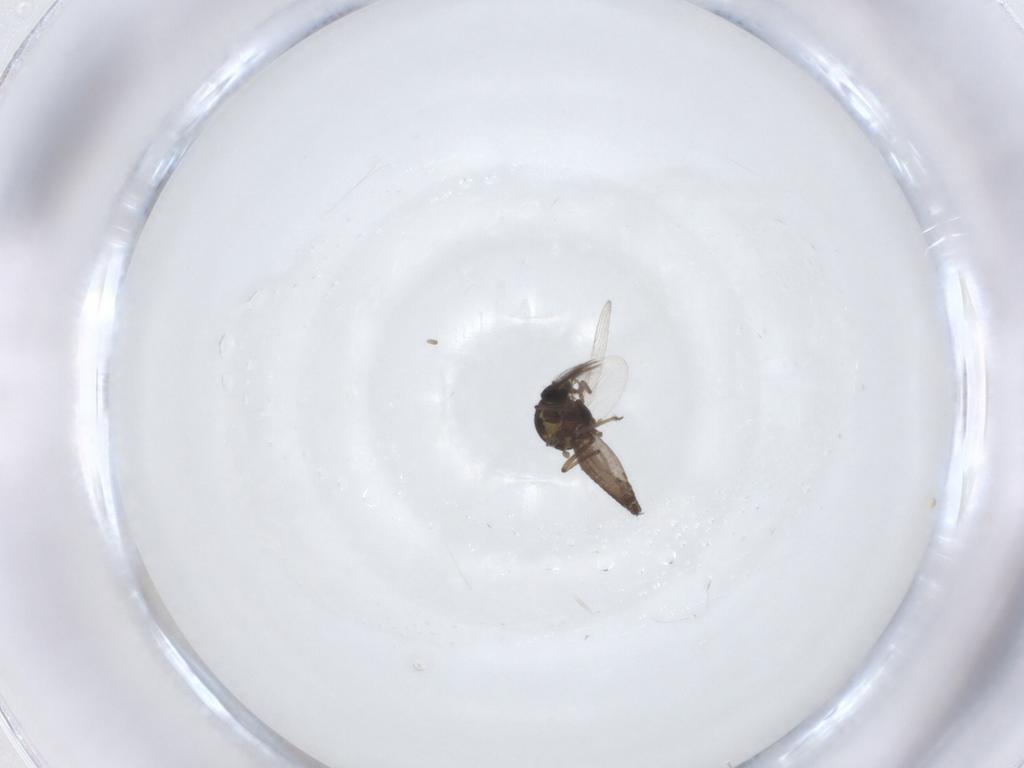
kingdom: Animalia
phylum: Arthropoda
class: Insecta
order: Diptera
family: Ceratopogonidae
